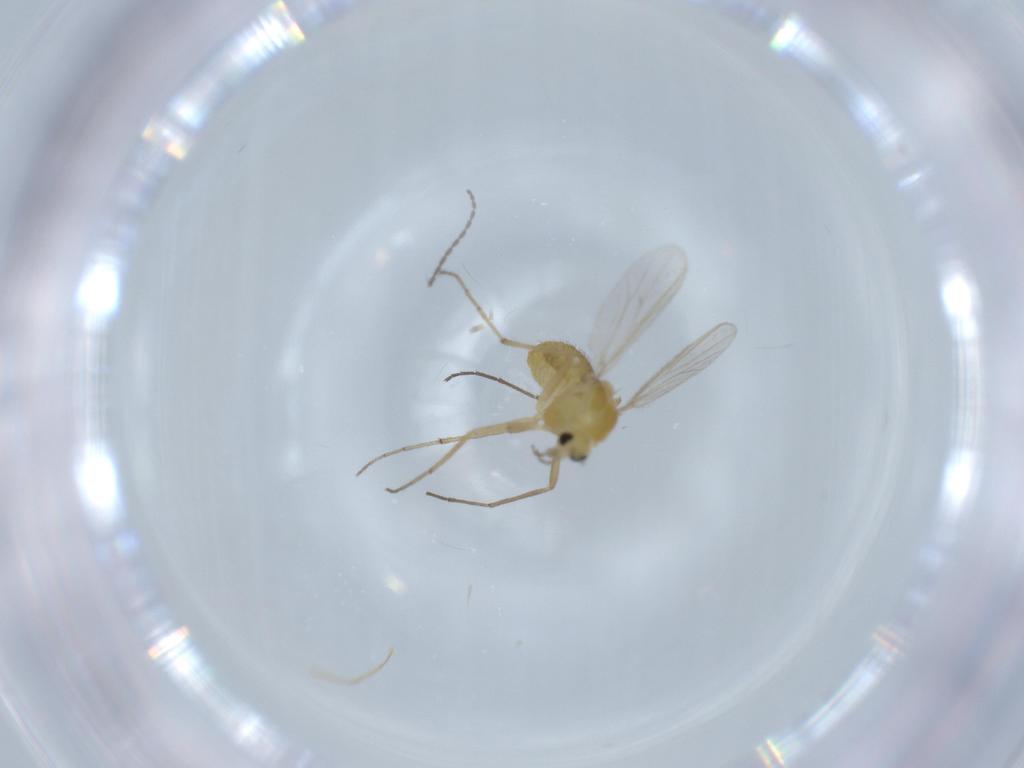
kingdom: Animalia
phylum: Arthropoda
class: Insecta
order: Diptera
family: Chironomidae
